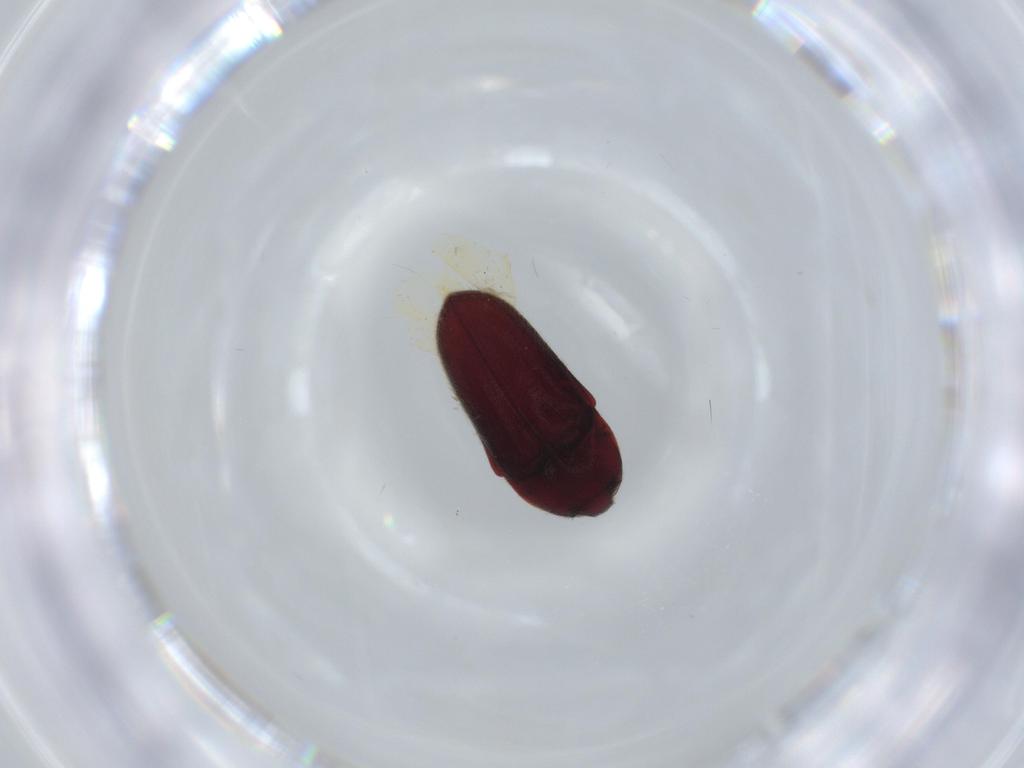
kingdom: Animalia
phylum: Arthropoda
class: Insecta
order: Coleoptera
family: Throscidae
